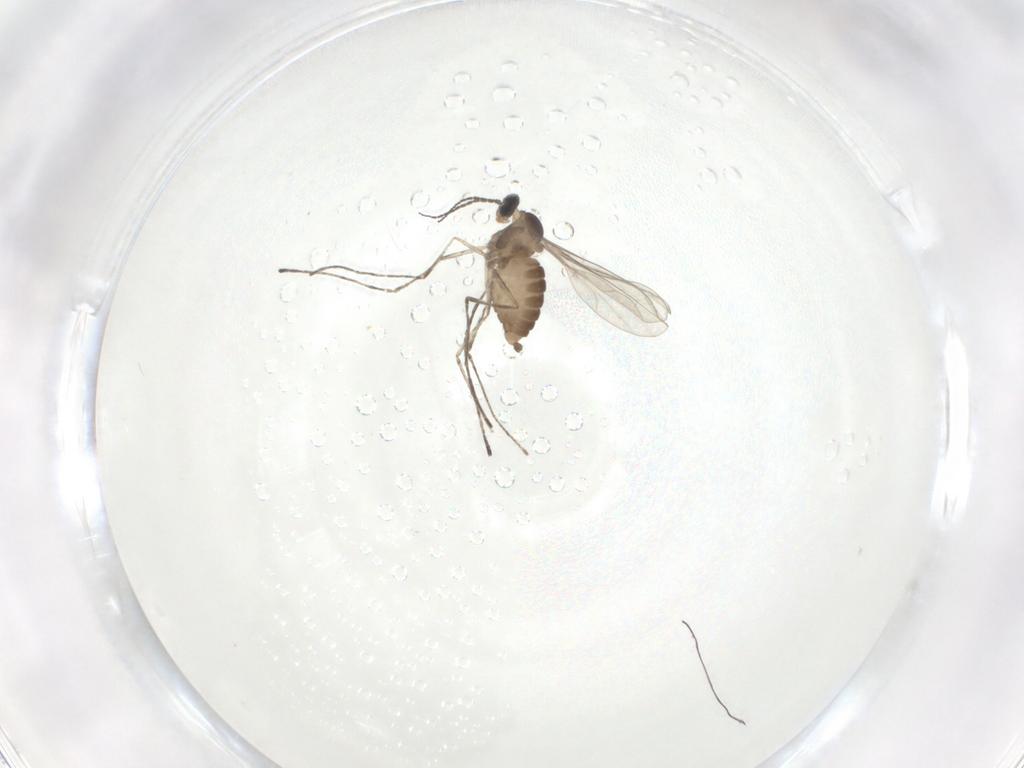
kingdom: Animalia
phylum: Arthropoda
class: Insecta
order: Diptera
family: Cecidomyiidae
